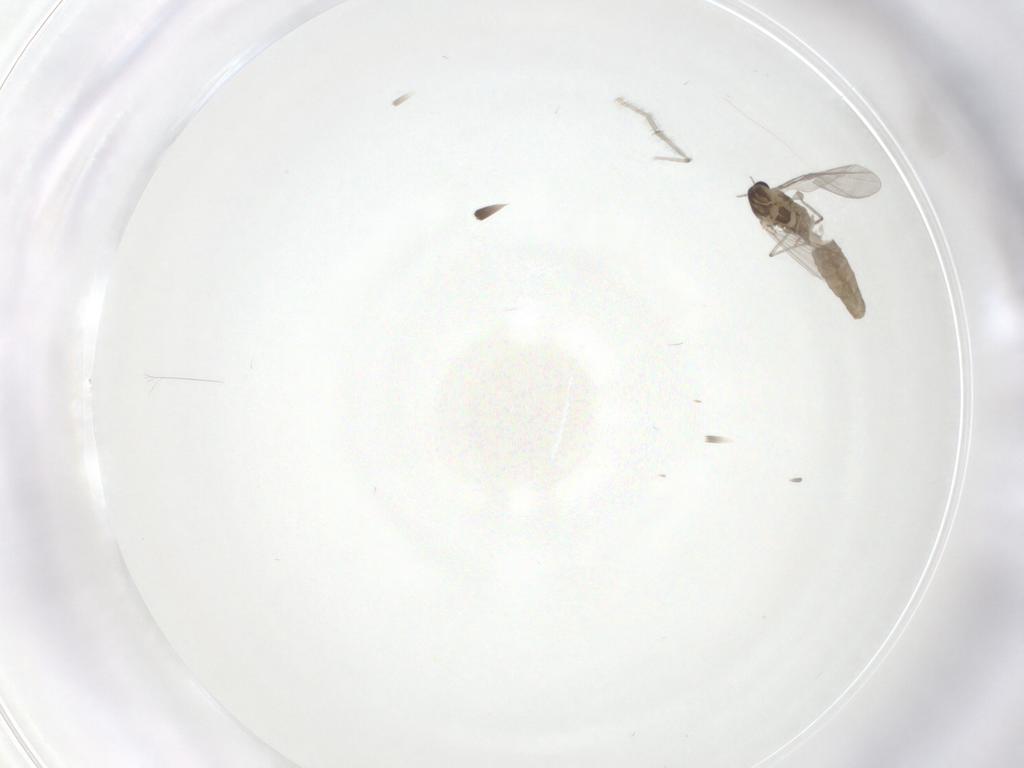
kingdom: Animalia
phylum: Arthropoda
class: Insecta
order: Diptera
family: Chironomidae
